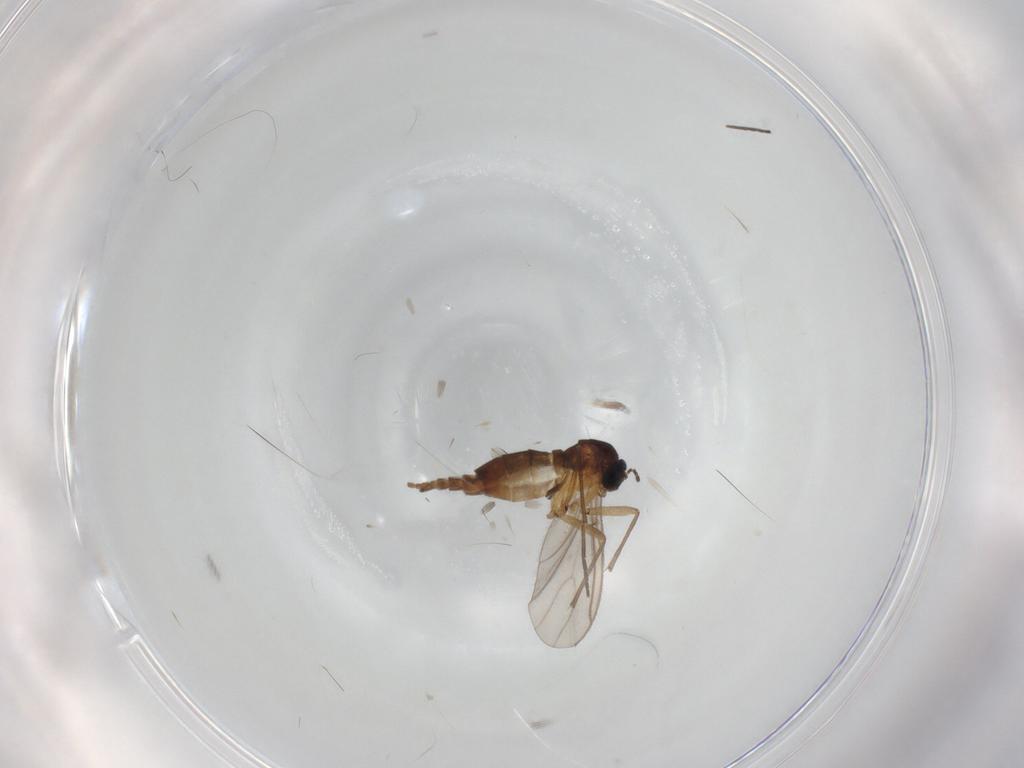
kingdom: Animalia
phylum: Arthropoda
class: Insecta
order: Diptera
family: Sciaridae
